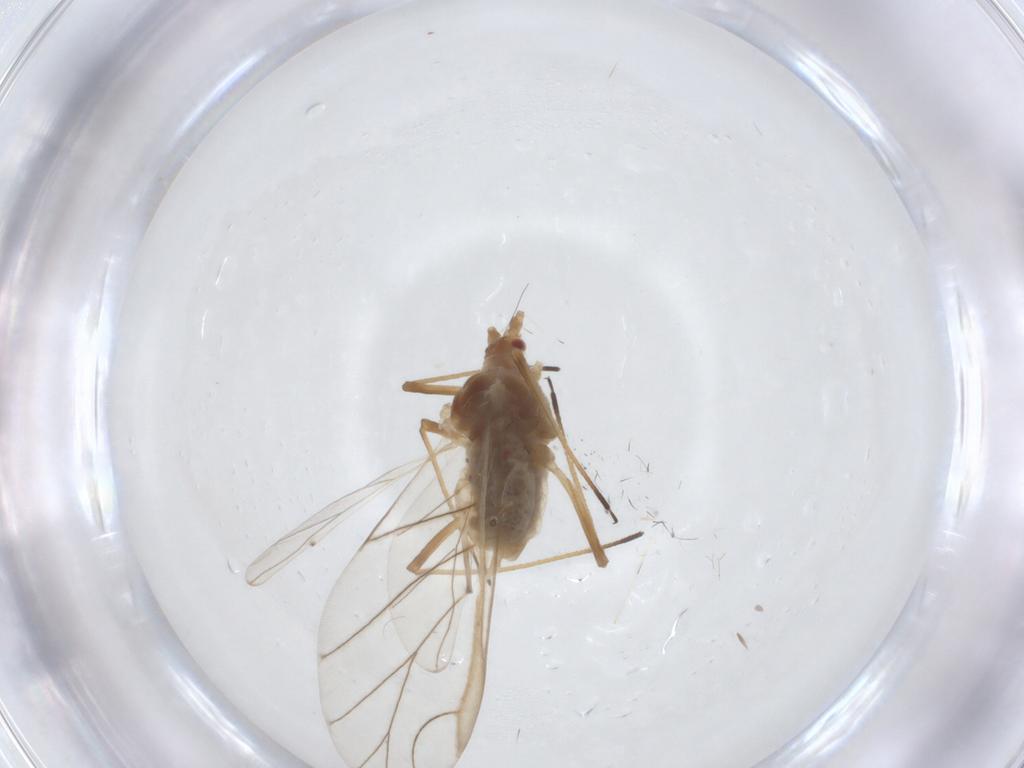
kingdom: Animalia
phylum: Arthropoda
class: Insecta
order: Hemiptera
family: Aphididae
